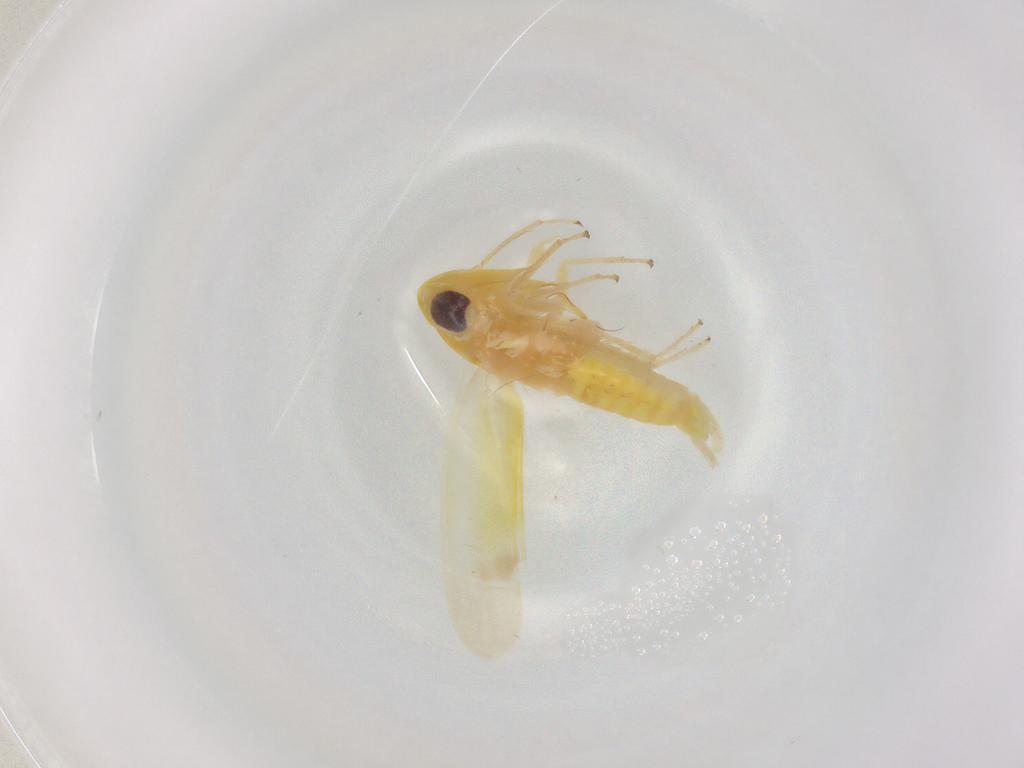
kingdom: Animalia
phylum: Arthropoda
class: Insecta
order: Hemiptera
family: Cicadellidae
